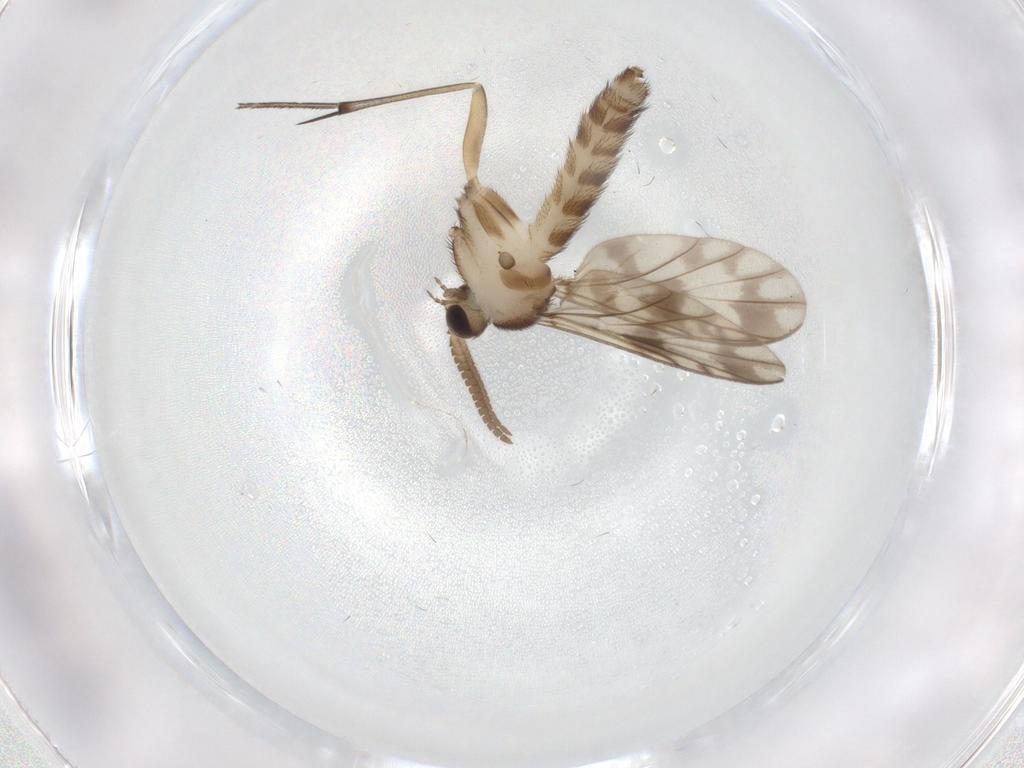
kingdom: Animalia
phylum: Arthropoda
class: Insecta
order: Diptera
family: Keroplatidae
